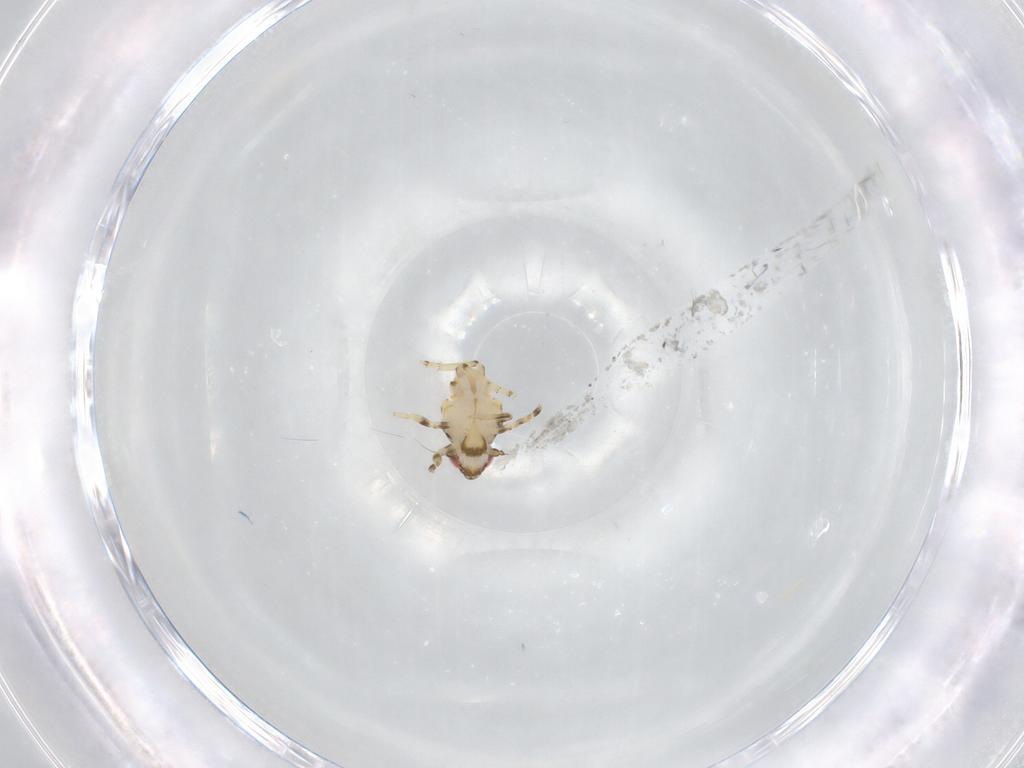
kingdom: Animalia
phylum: Arthropoda
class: Insecta
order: Hemiptera
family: Fulgoroidea_incertae_sedis
